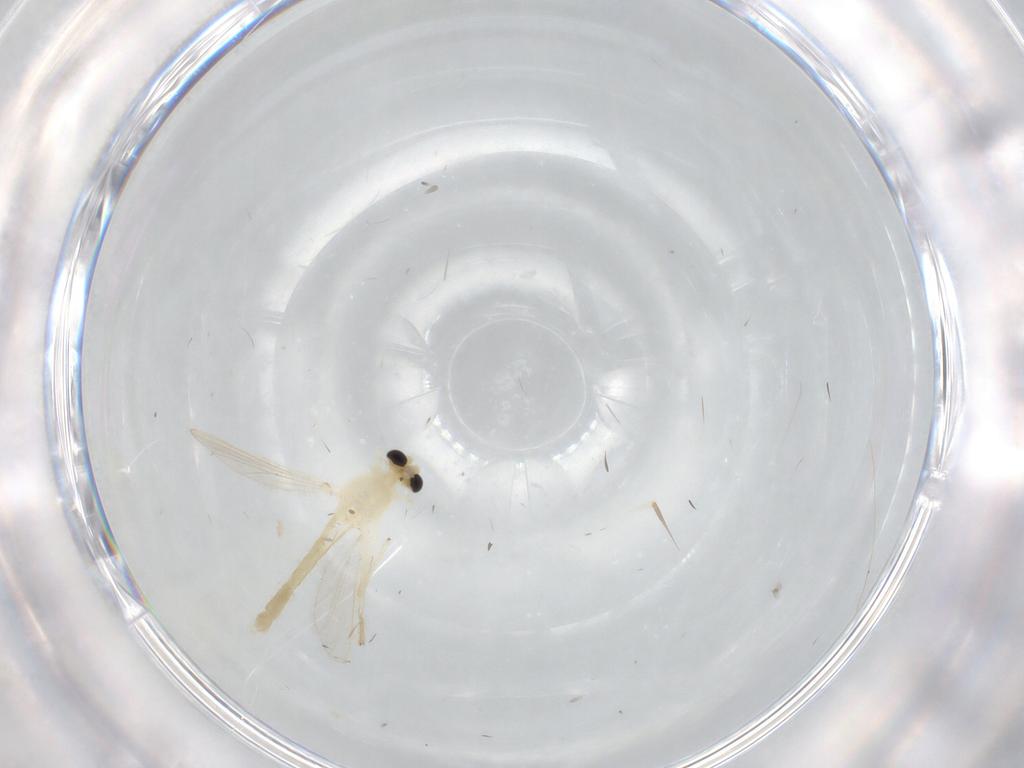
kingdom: Animalia
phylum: Arthropoda
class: Insecta
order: Diptera
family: Chironomidae
